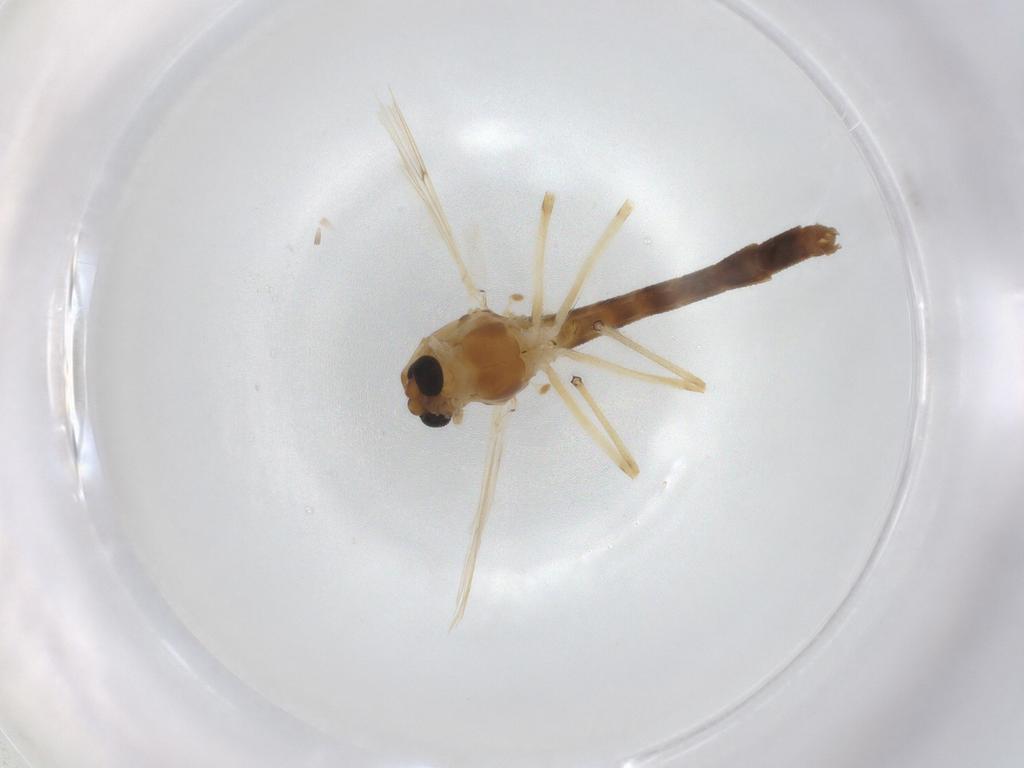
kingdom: Animalia
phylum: Arthropoda
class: Insecta
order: Diptera
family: Chironomidae
